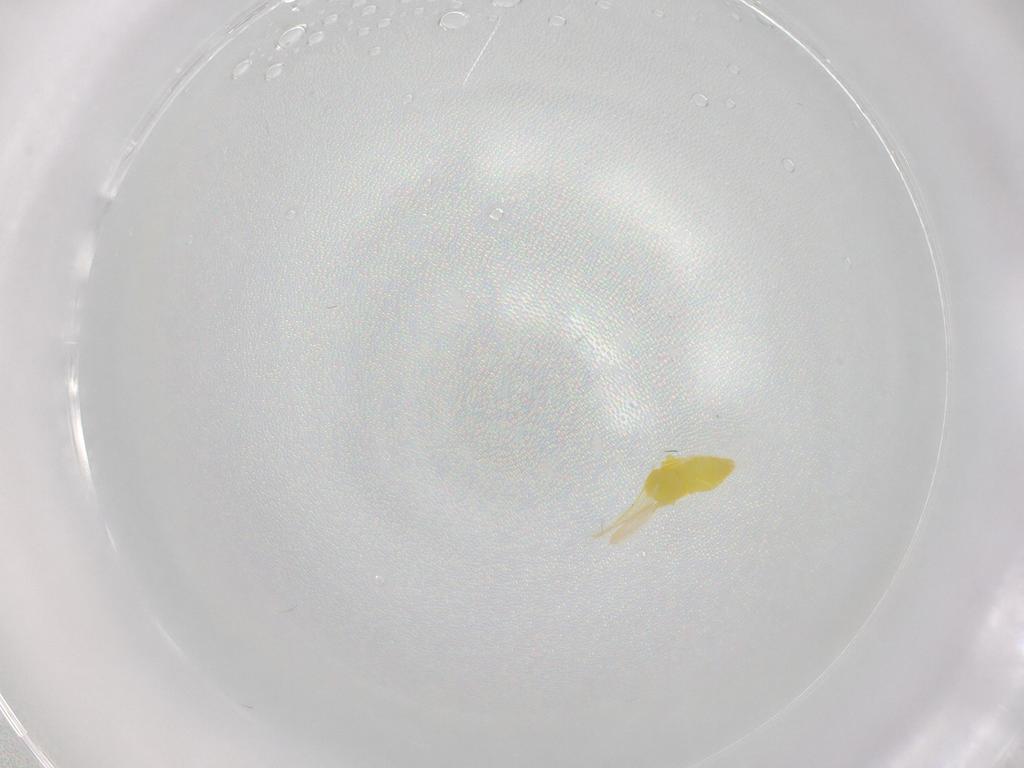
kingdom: Animalia
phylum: Arthropoda
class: Insecta
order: Hemiptera
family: Aleyrodidae
